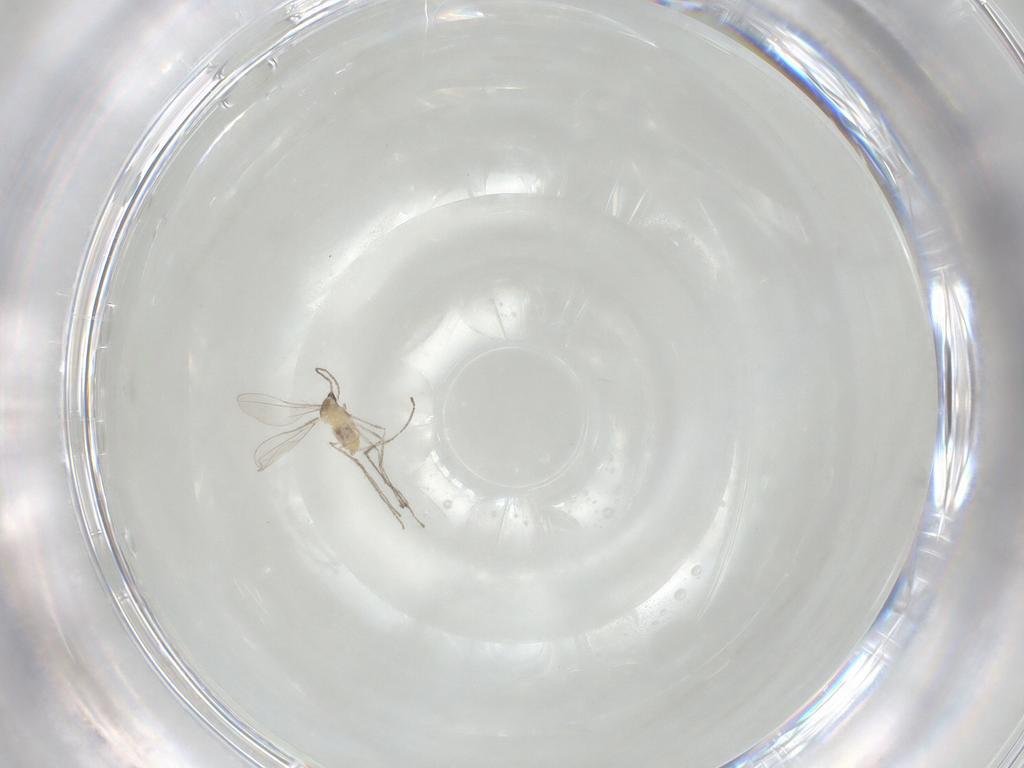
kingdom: Animalia
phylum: Arthropoda
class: Insecta
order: Diptera
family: Cecidomyiidae
